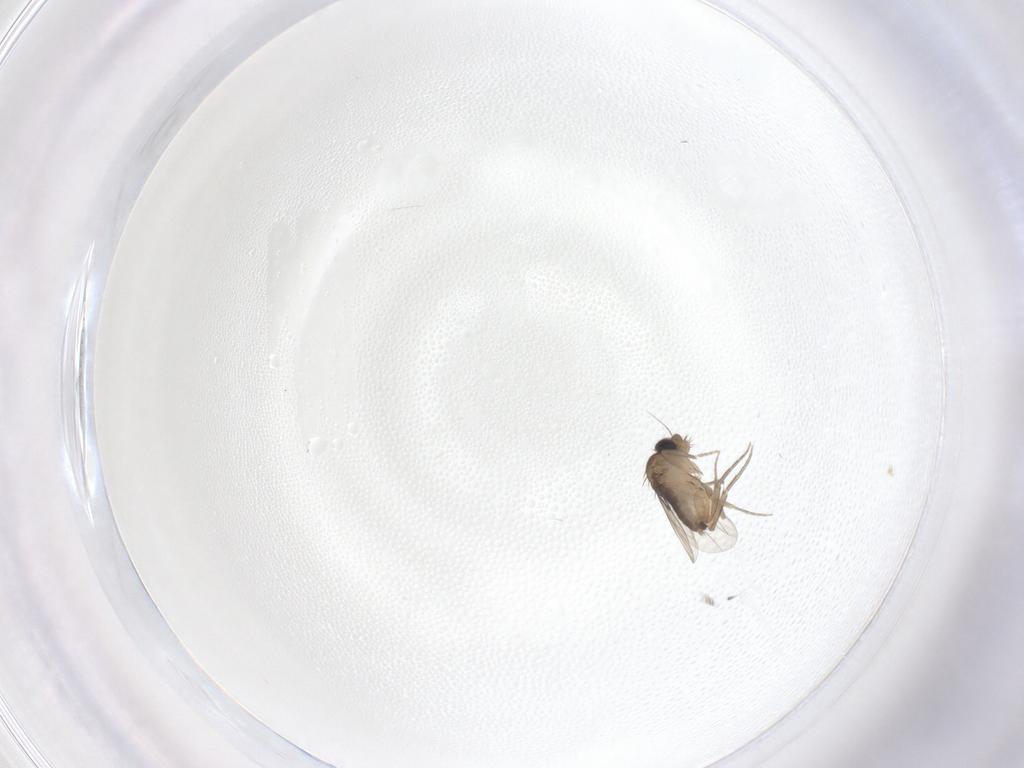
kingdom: Animalia
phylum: Arthropoda
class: Insecta
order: Diptera
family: Phoridae
